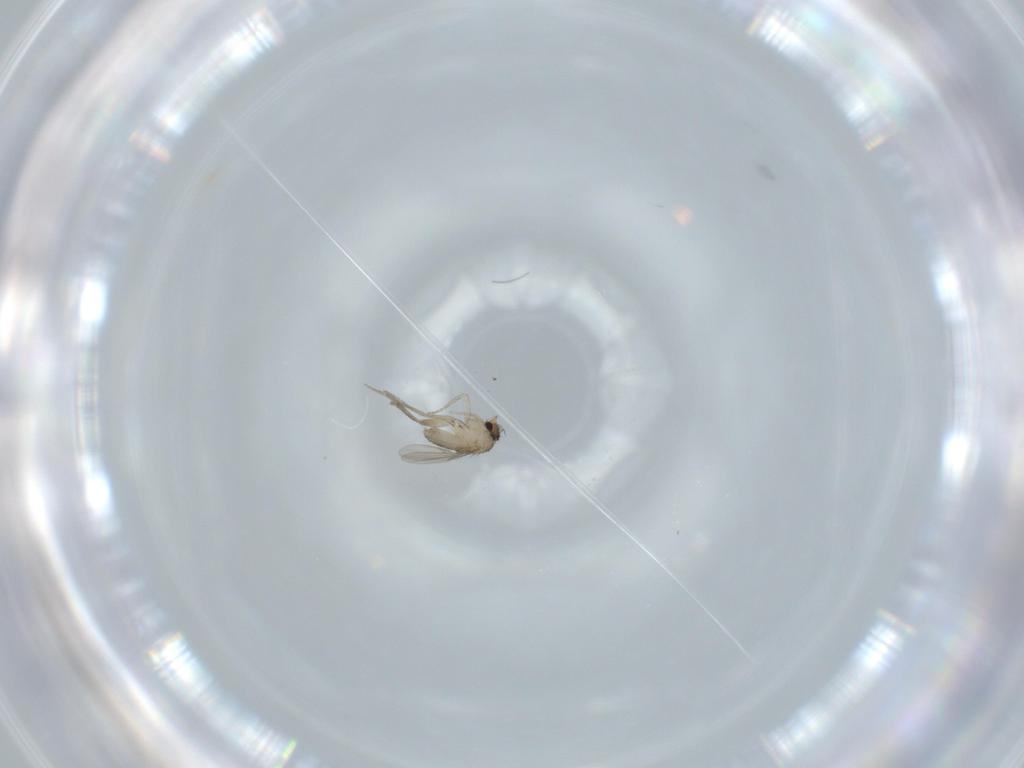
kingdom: Animalia
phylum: Arthropoda
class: Insecta
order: Diptera
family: Phoridae
